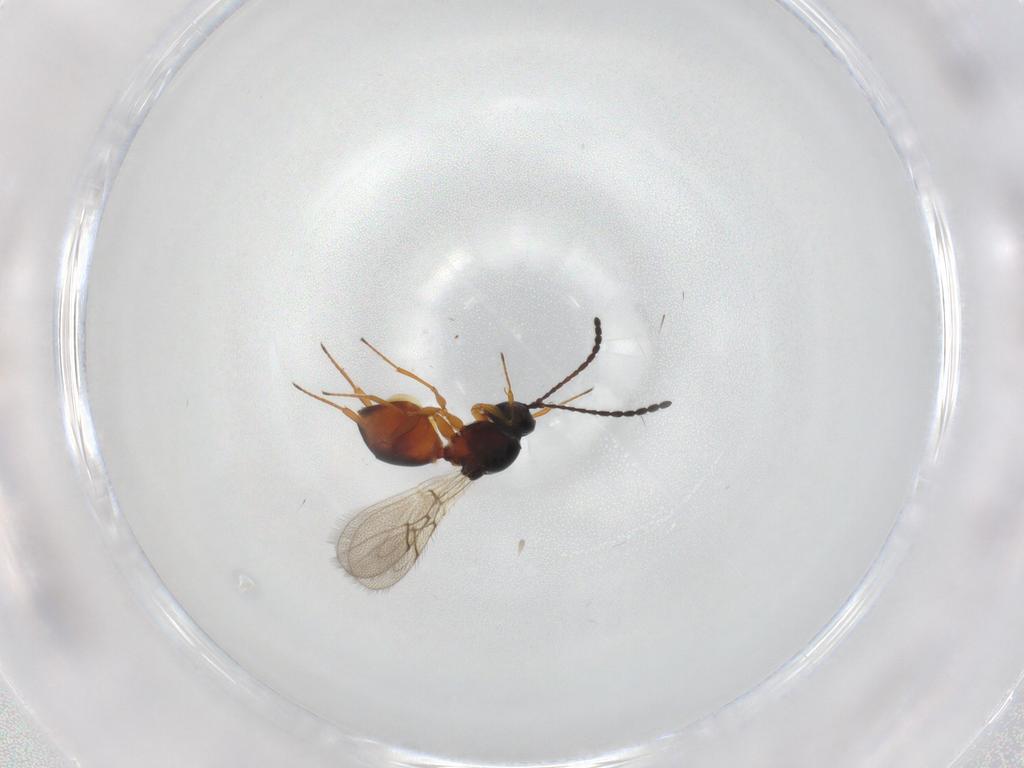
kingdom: Animalia
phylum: Arthropoda
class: Insecta
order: Hymenoptera
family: Figitidae
